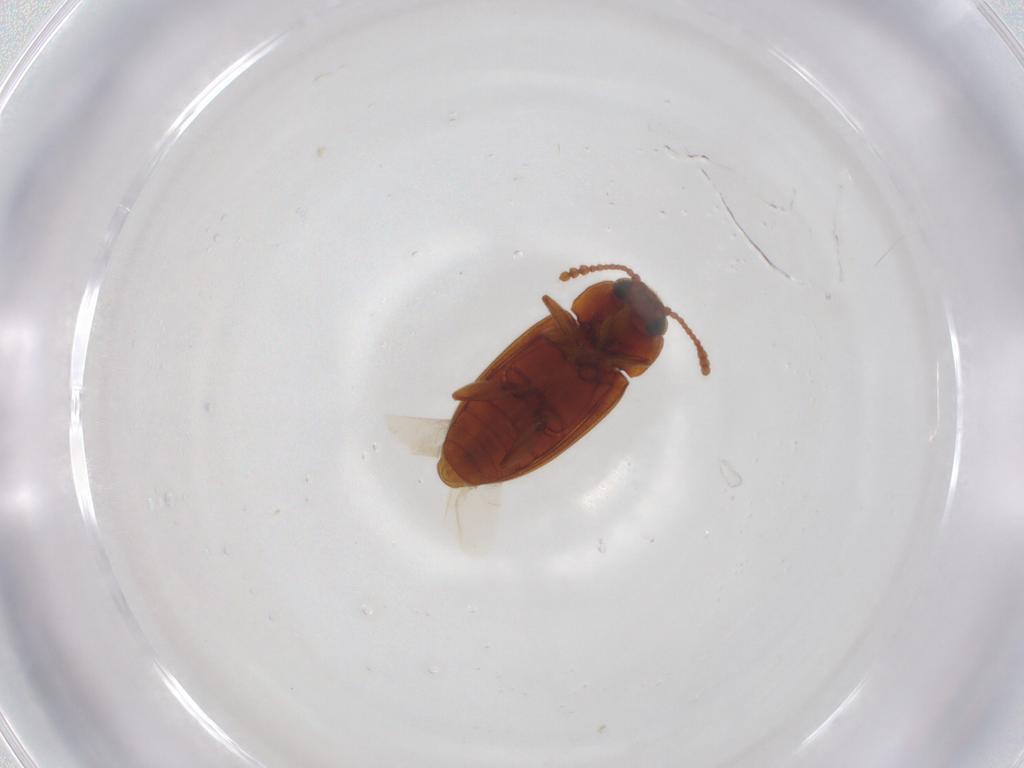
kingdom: Animalia
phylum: Arthropoda
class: Insecta
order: Coleoptera
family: Erotylidae
